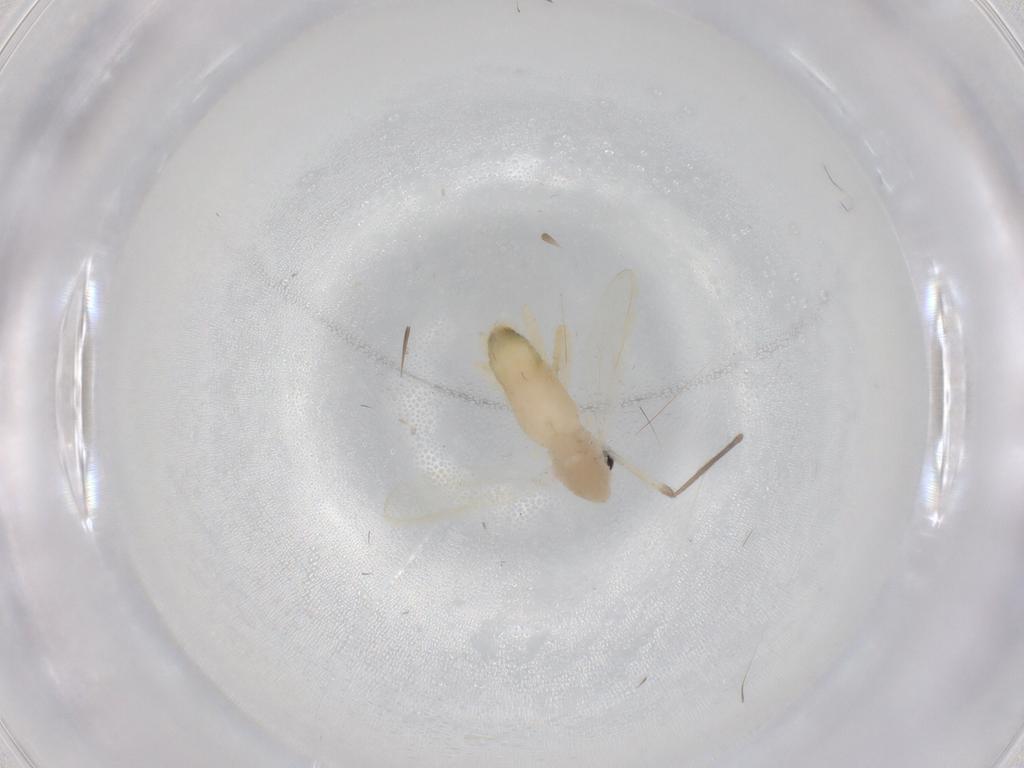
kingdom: Animalia
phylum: Arthropoda
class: Insecta
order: Diptera
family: Chironomidae
